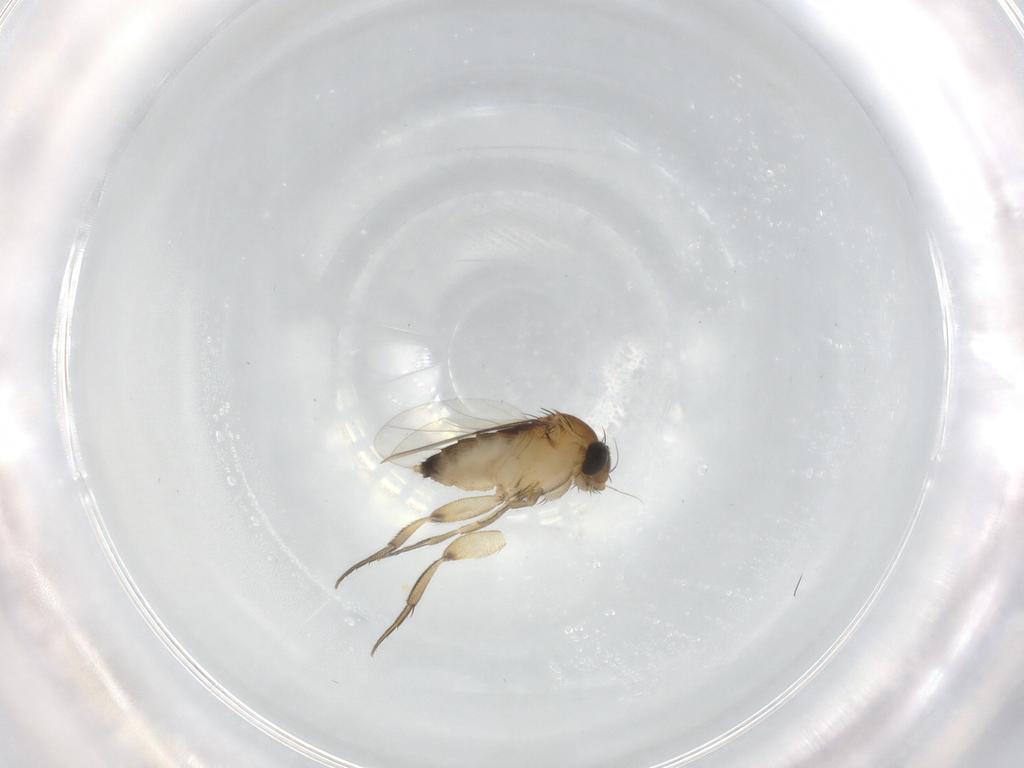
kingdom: Animalia
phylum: Arthropoda
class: Insecta
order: Diptera
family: Phoridae
